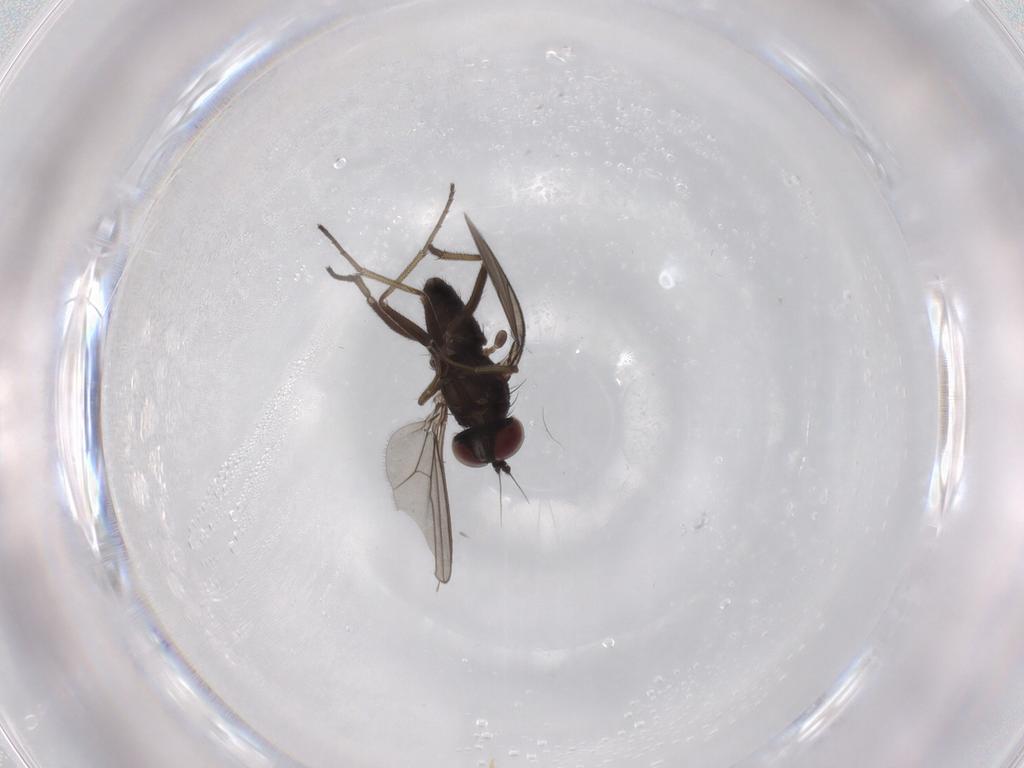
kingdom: Animalia
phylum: Arthropoda
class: Insecta
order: Diptera
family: Dolichopodidae
